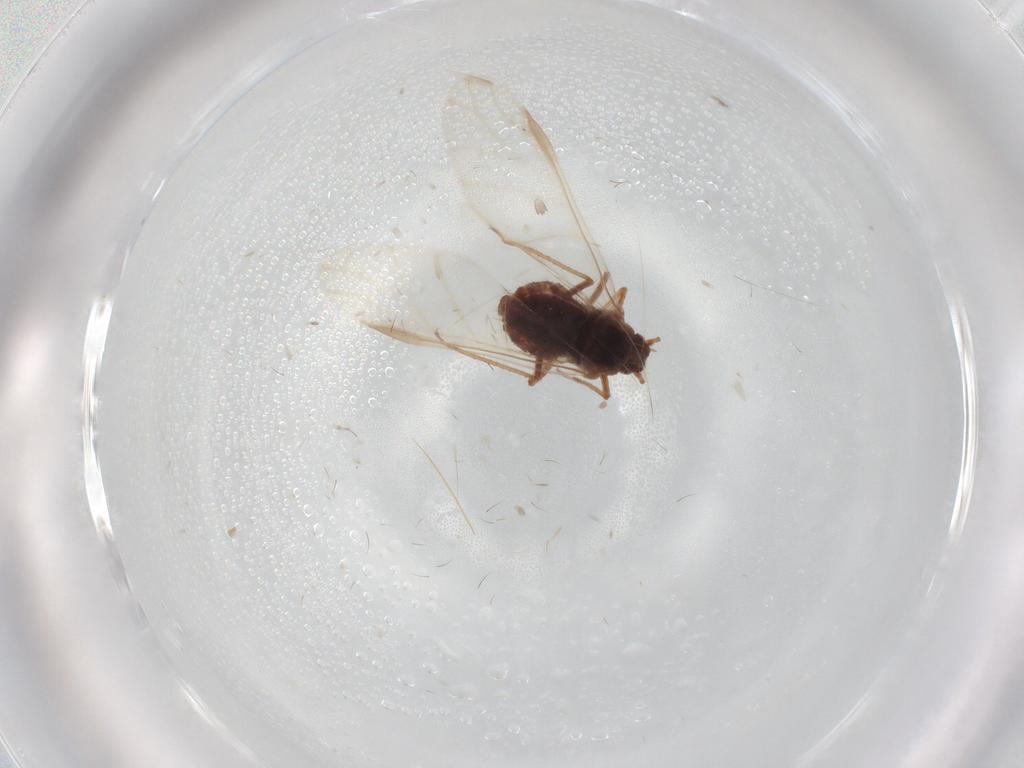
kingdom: Animalia
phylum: Arthropoda
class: Insecta
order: Hemiptera
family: Aphididae
